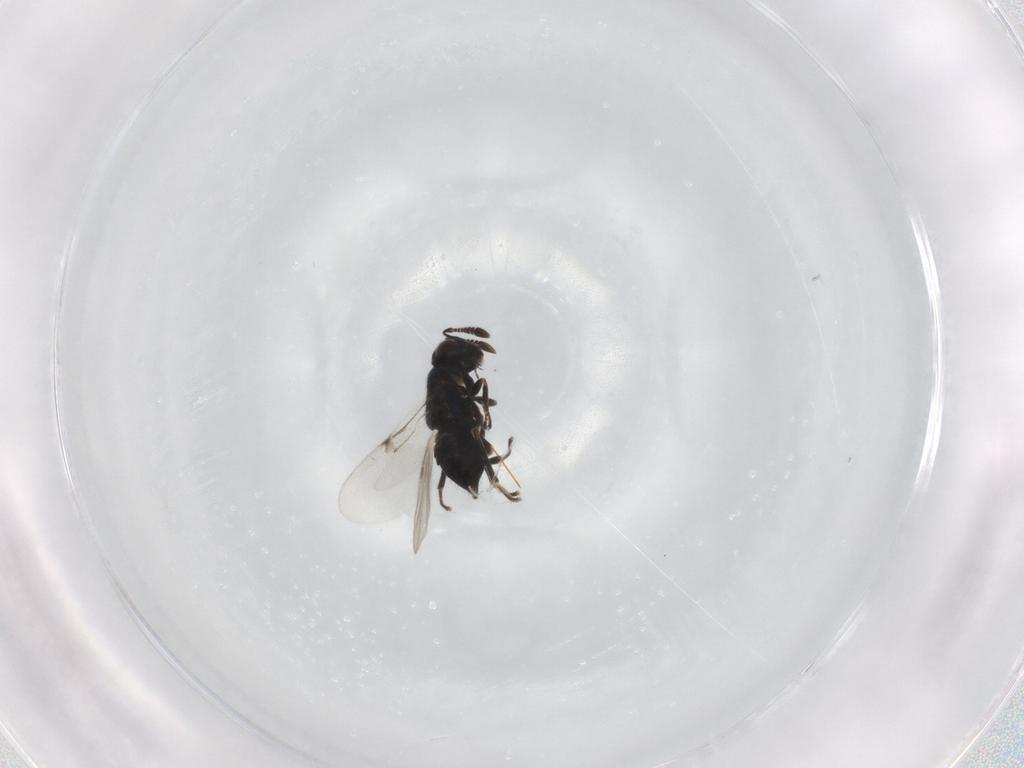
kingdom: Animalia
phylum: Arthropoda
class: Insecta
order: Hymenoptera
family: Encyrtidae
